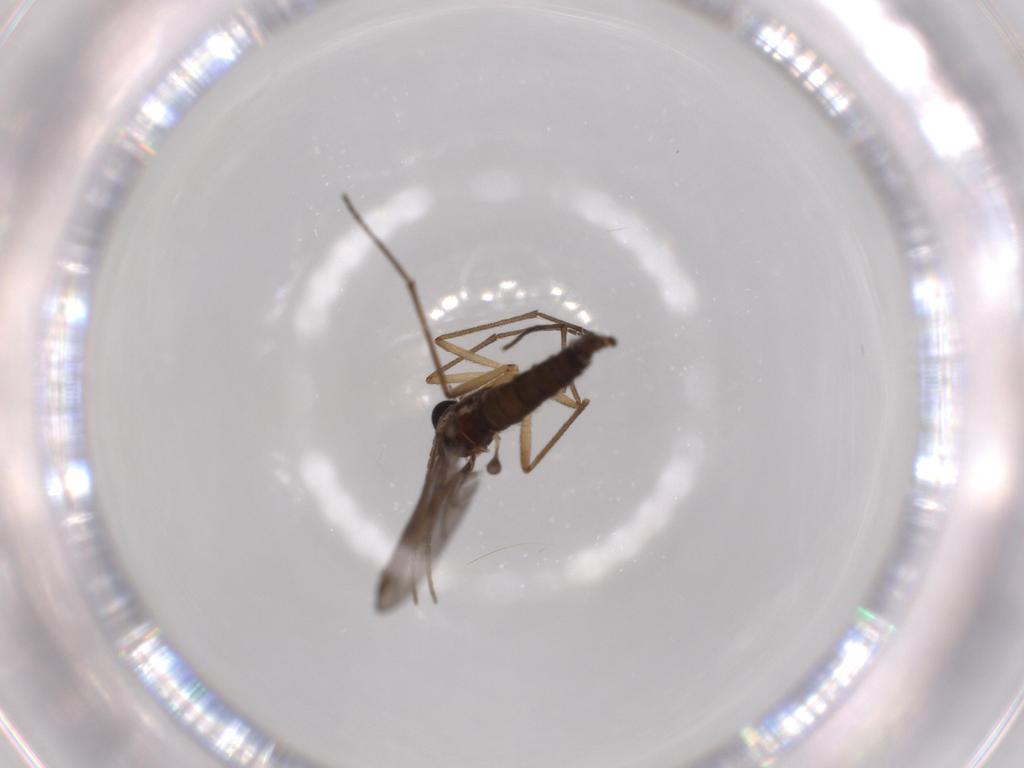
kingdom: Animalia
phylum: Arthropoda
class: Insecta
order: Diptera
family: Sciaridae
